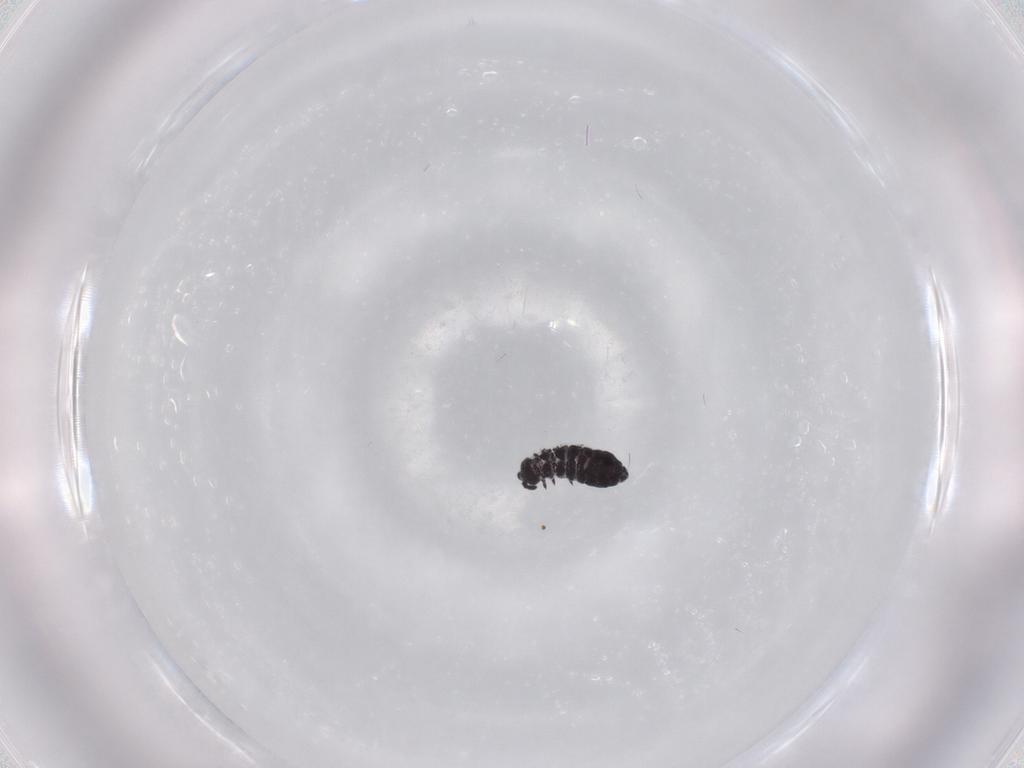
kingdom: Animalia
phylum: Arthropoda
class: Collembola
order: Poduromorpha
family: Hypogastruridae
